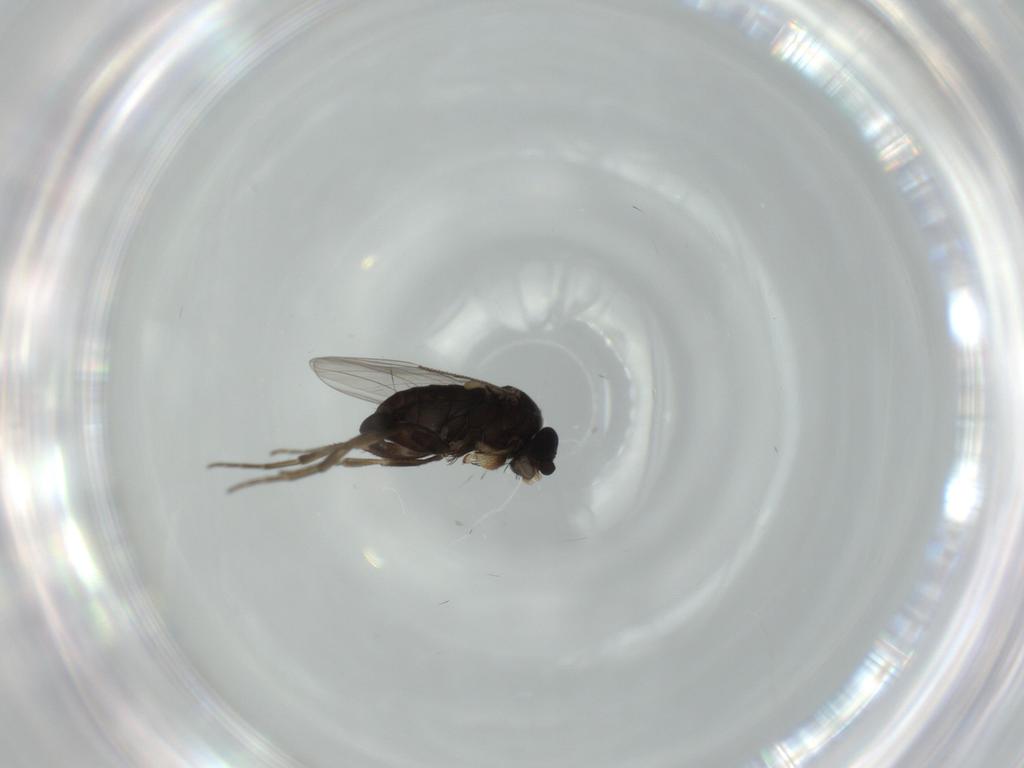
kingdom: Animalia
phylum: Arthropoda
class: Insecta
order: Diptera
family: Phoridae
